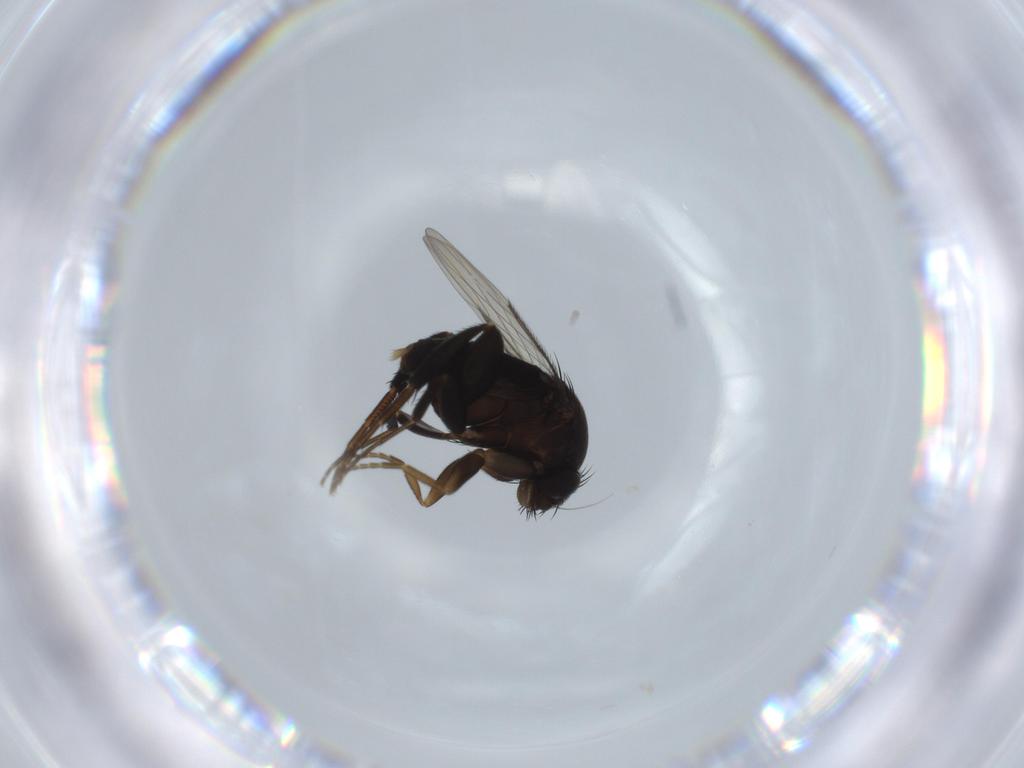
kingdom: Animalia
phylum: Arthropoda
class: Insecta
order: Diptera
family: Phoridae
